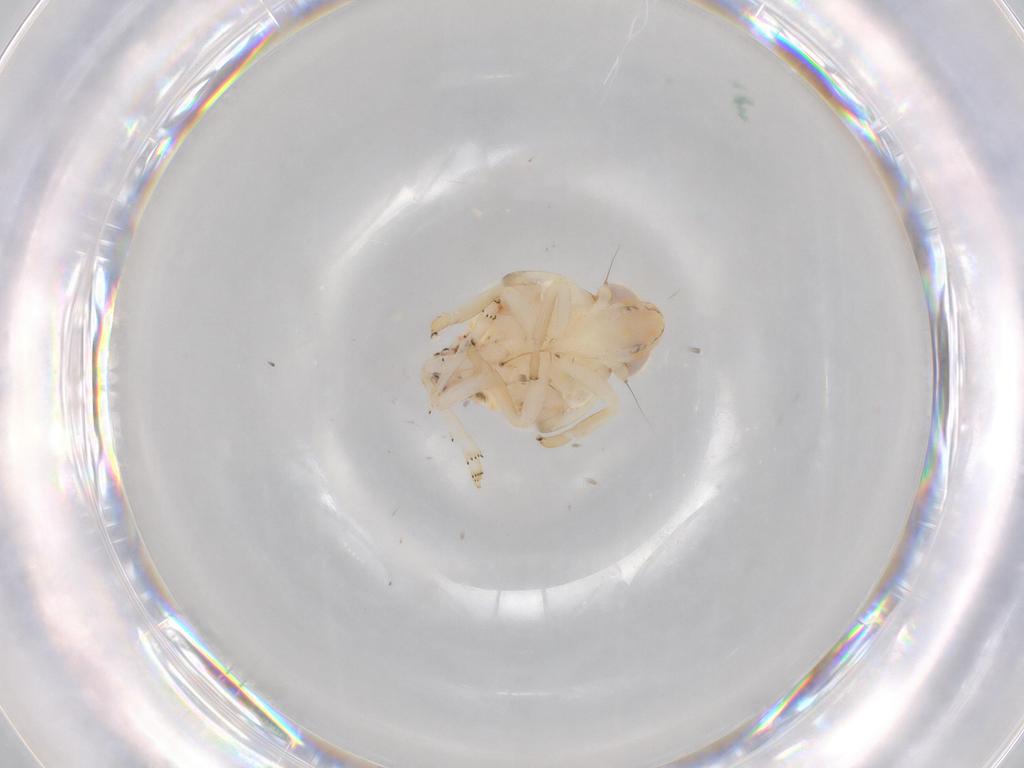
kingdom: Animalia
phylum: Arthropoda
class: Insecta
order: Hemiptera
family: Nogodinidae
